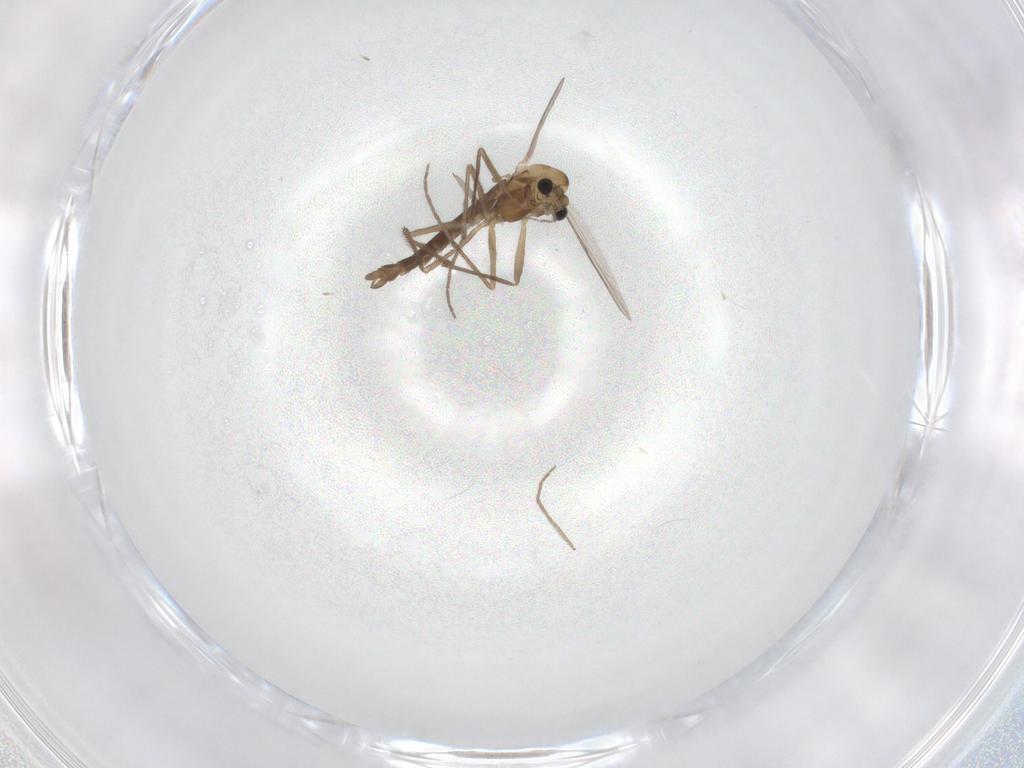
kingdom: Animalia
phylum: Arthropoda
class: Insecta
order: Diptera
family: Chironomidae
